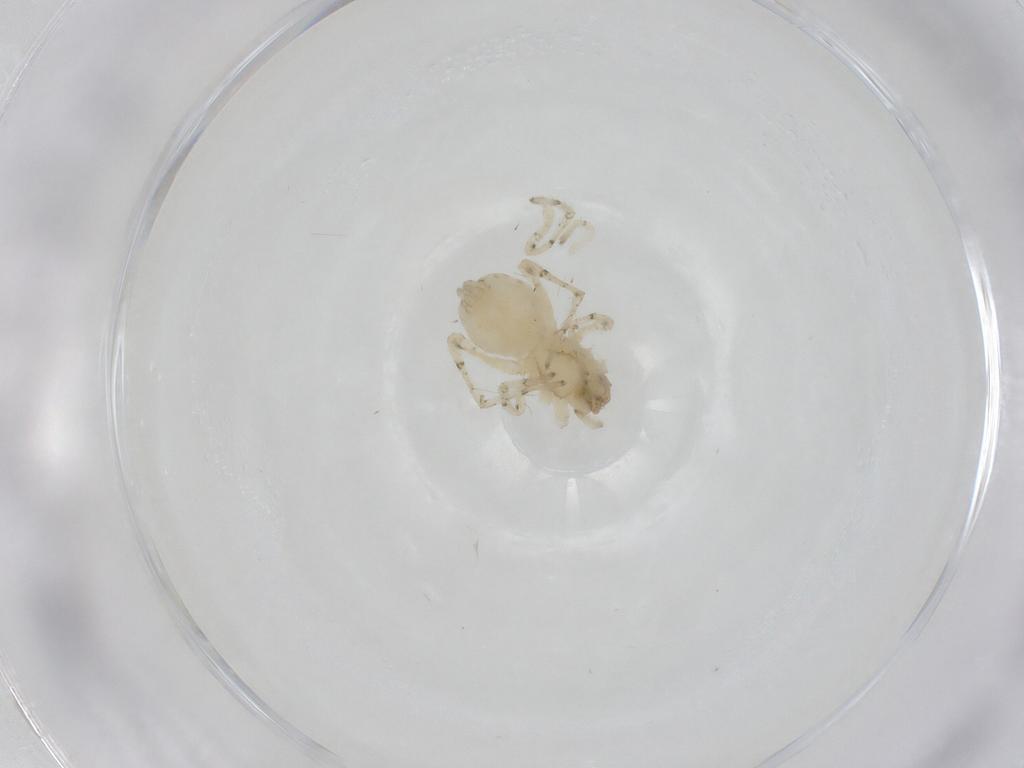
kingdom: Animalia
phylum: Arthropoda
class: Arachnida
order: Araneae
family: Anyphaenidae
